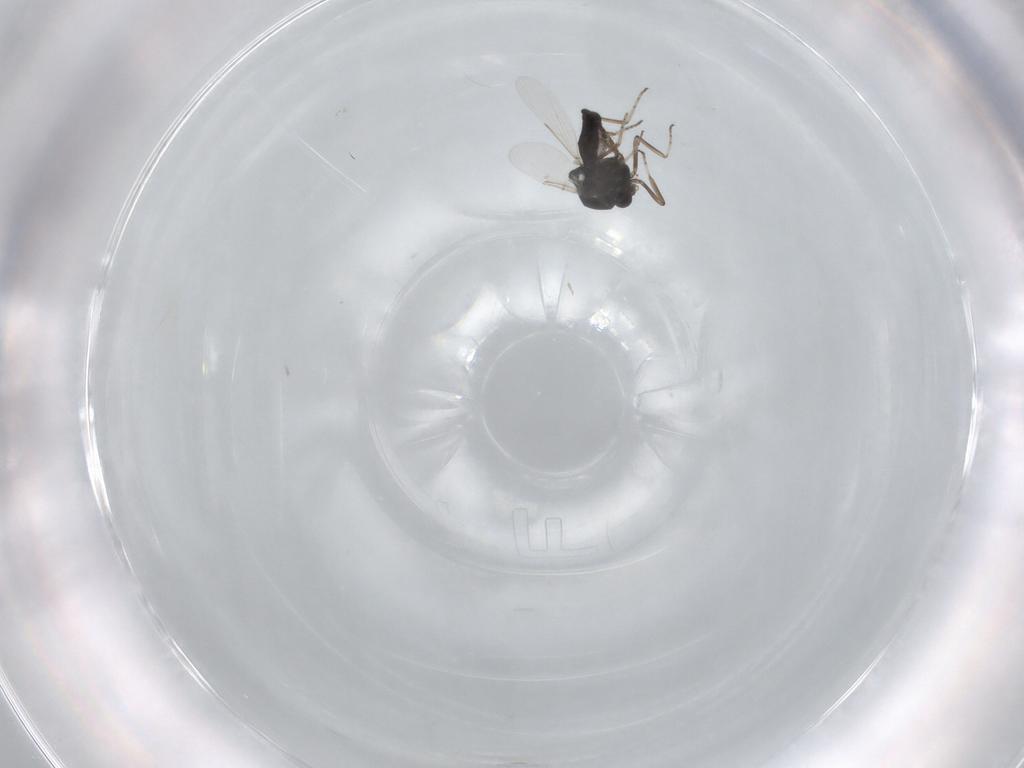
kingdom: Animalia
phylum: Arthropoda
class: Insecta
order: Diptera
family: Ceratopogonidae
